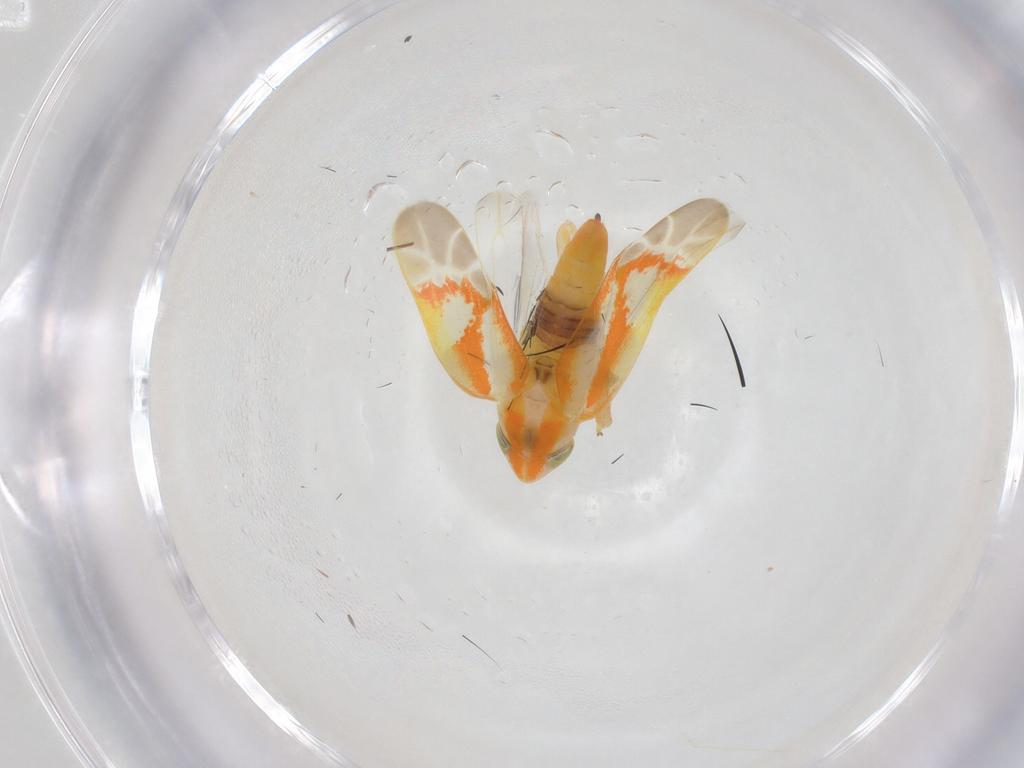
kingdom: Animalia
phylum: Arthropoda
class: Insecta
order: Hemiptera
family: Cicadellidae
